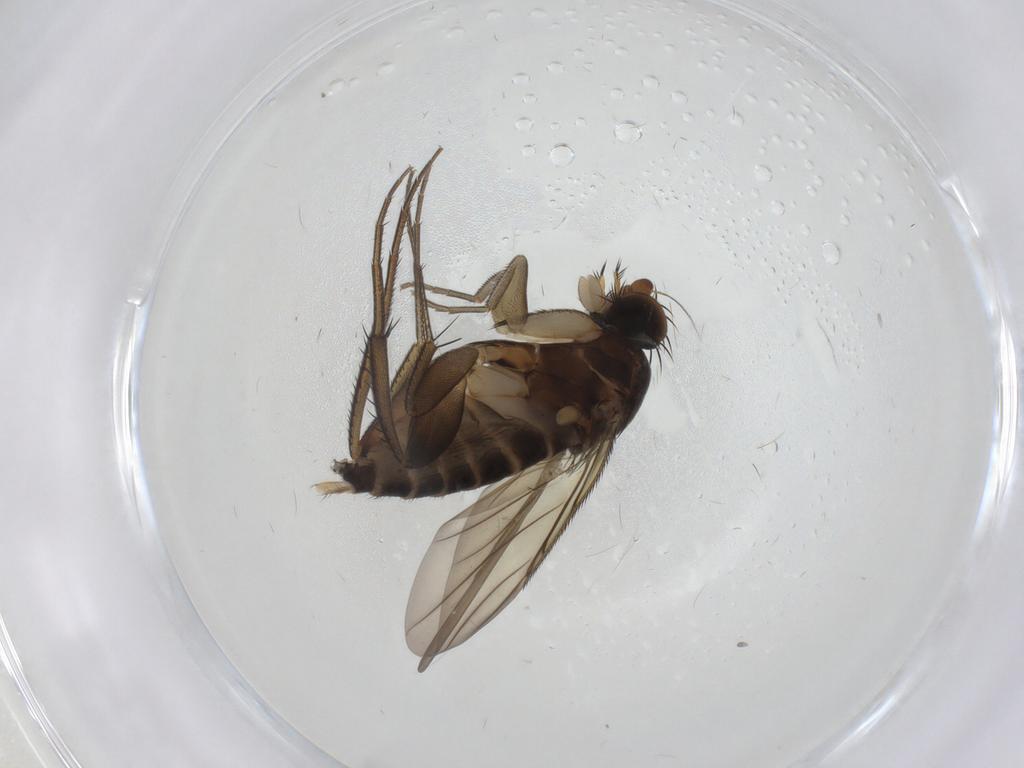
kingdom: Animalia
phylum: Arthropoda
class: Insecta
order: Diptera
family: Phoridae
